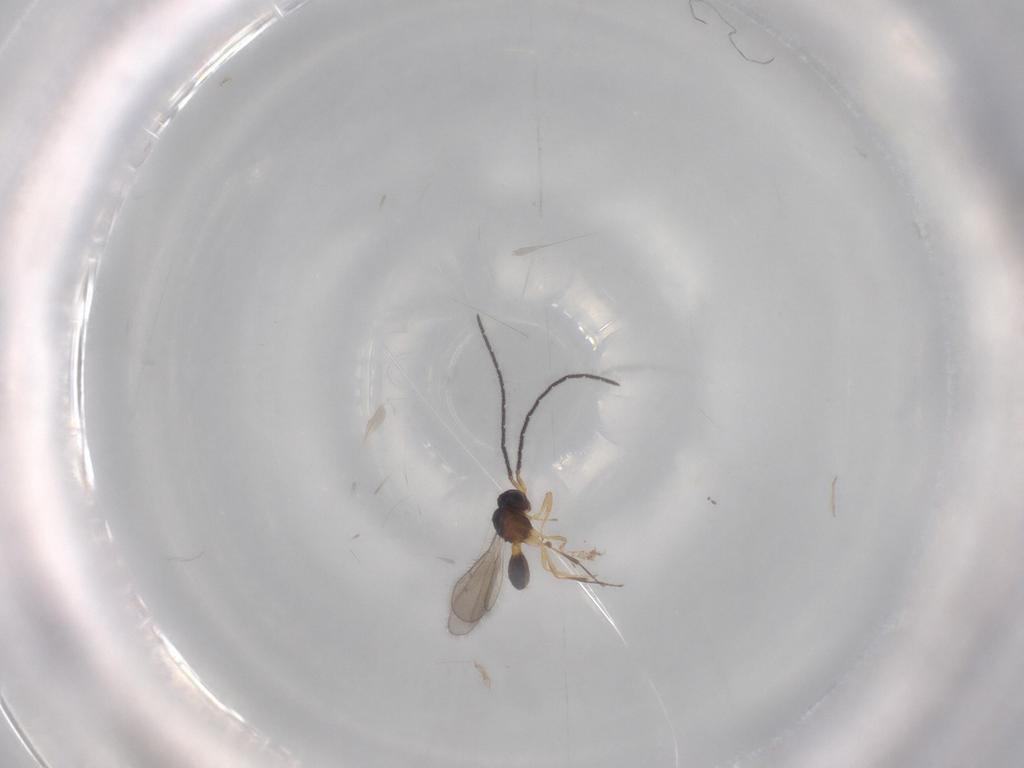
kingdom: Animalia
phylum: Arthropoda
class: Insecta
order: Hymenoptera
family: Scelionidae
